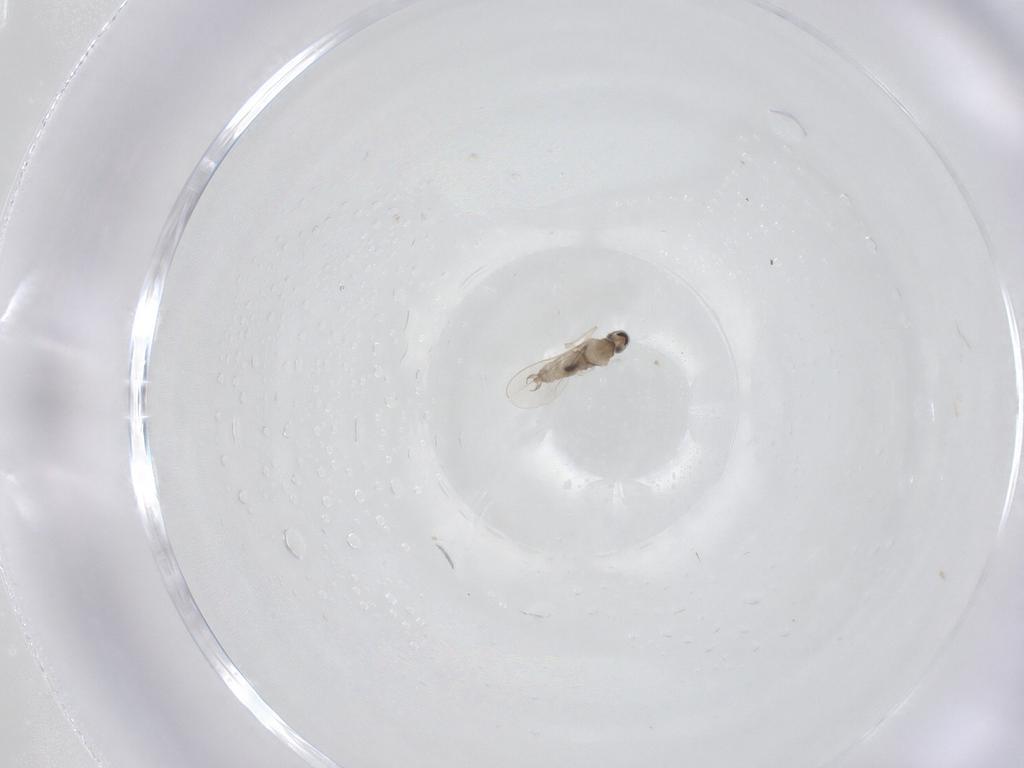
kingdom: Animalia
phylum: Arthropoda
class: Insecta
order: Diptera
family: Cecidomyiidae
